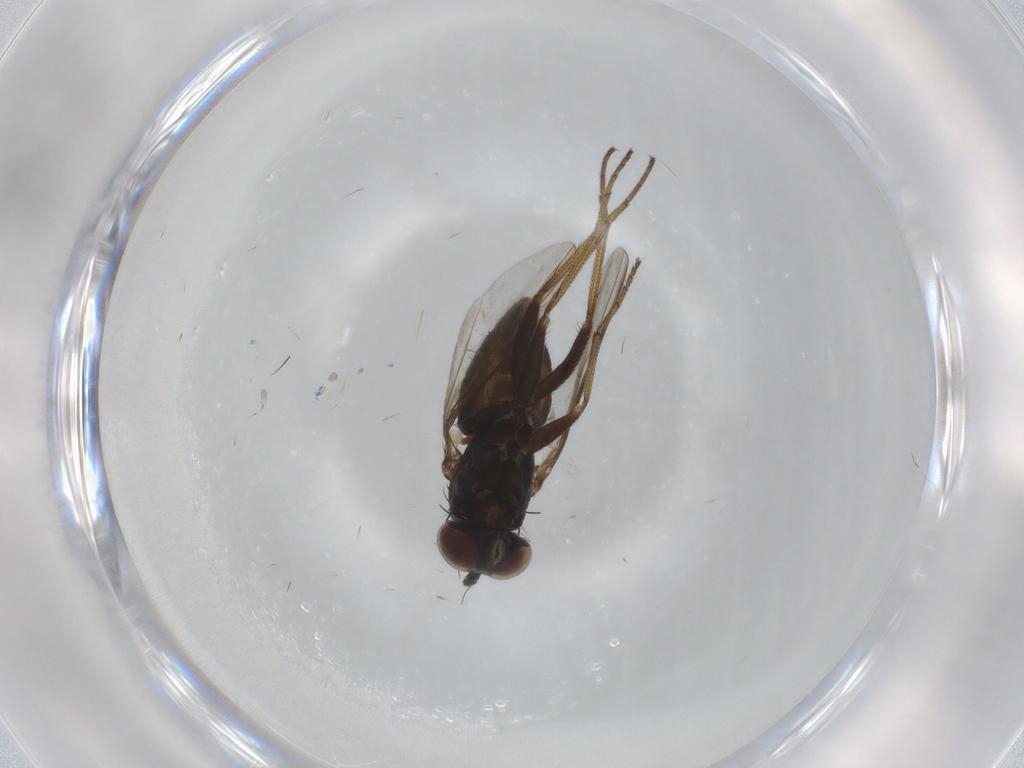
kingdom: Animalia
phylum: Arthropoda
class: Insecta
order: Diptera
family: Dolichopodidae
